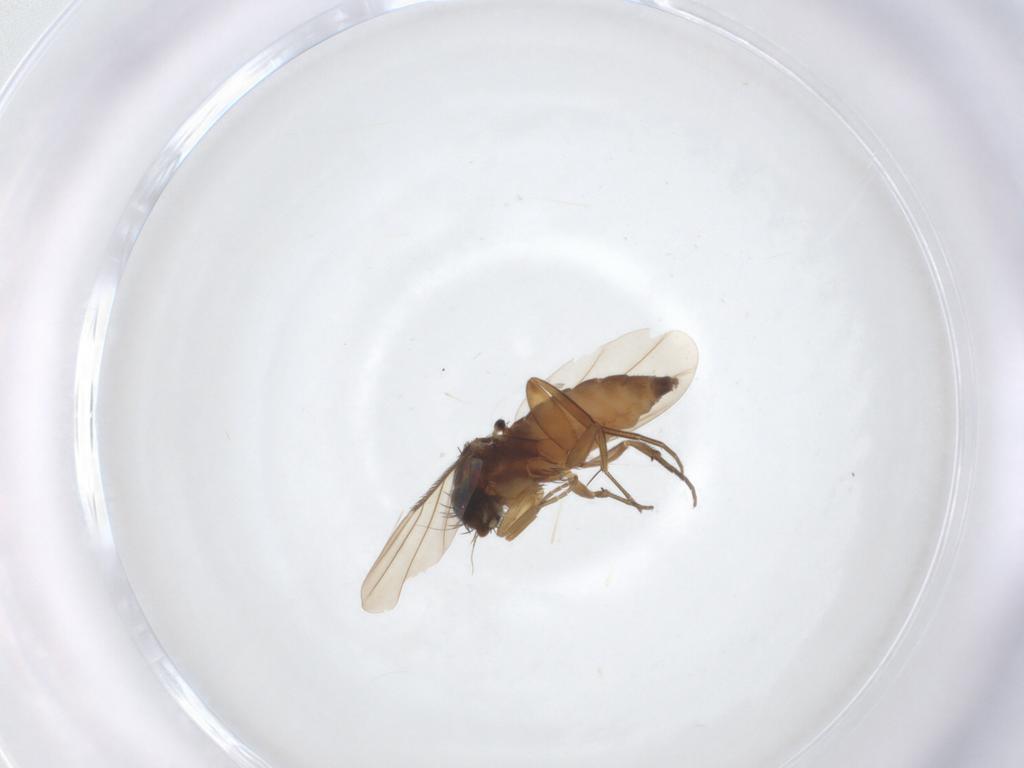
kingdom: Animalia
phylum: Arthropoda
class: Insecta
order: Diptera
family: Phoridae
